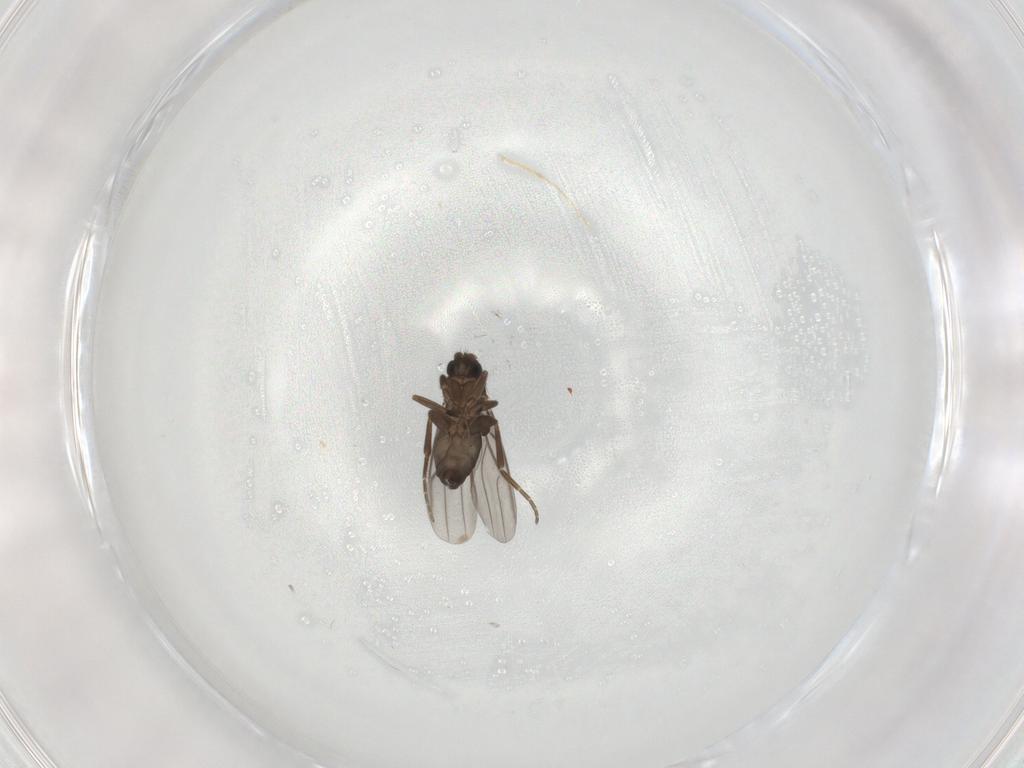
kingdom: Animalia
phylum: Arthropoda
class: Insecta
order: Diptera
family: Phoridae
